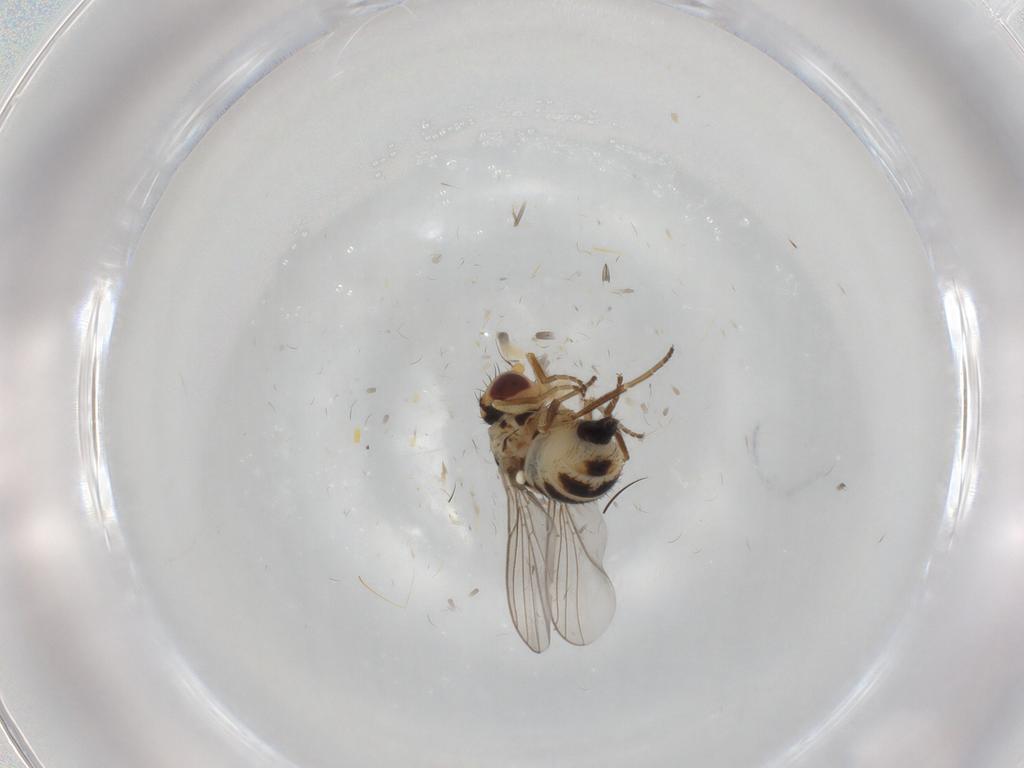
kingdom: Animalia
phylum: Arthropoda
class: Insecta
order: Diptera
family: Agromyzidae
